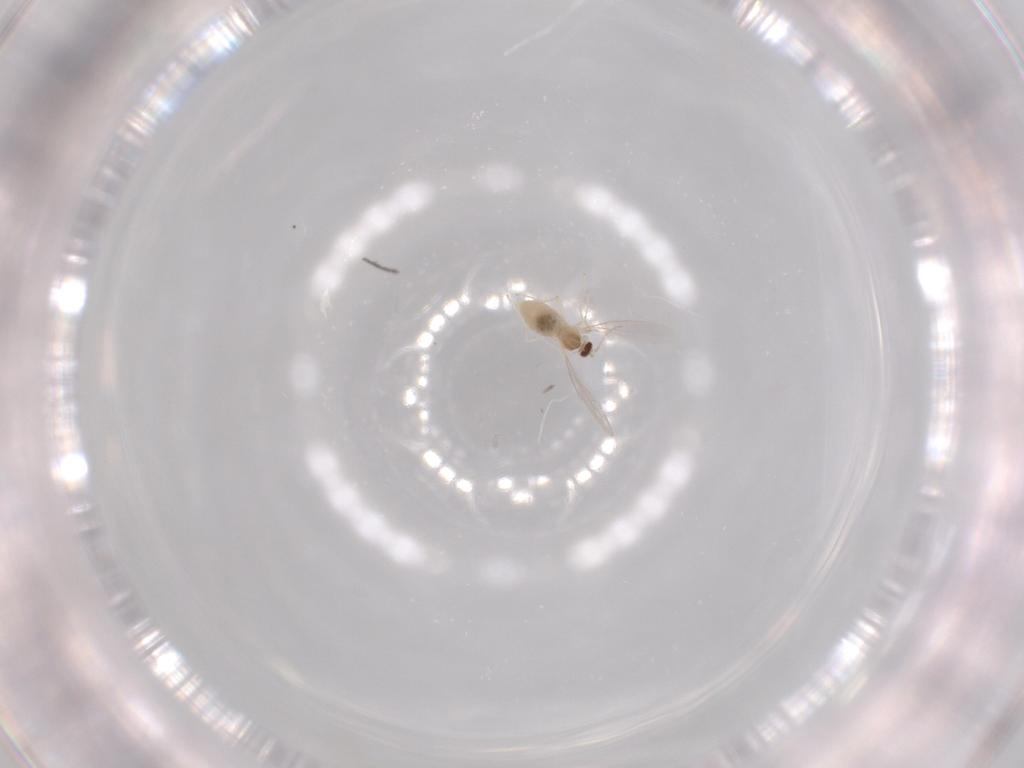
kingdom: Animalia
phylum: Arthropoda
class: Insecta
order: Diptera
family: Cecidomyiidae
